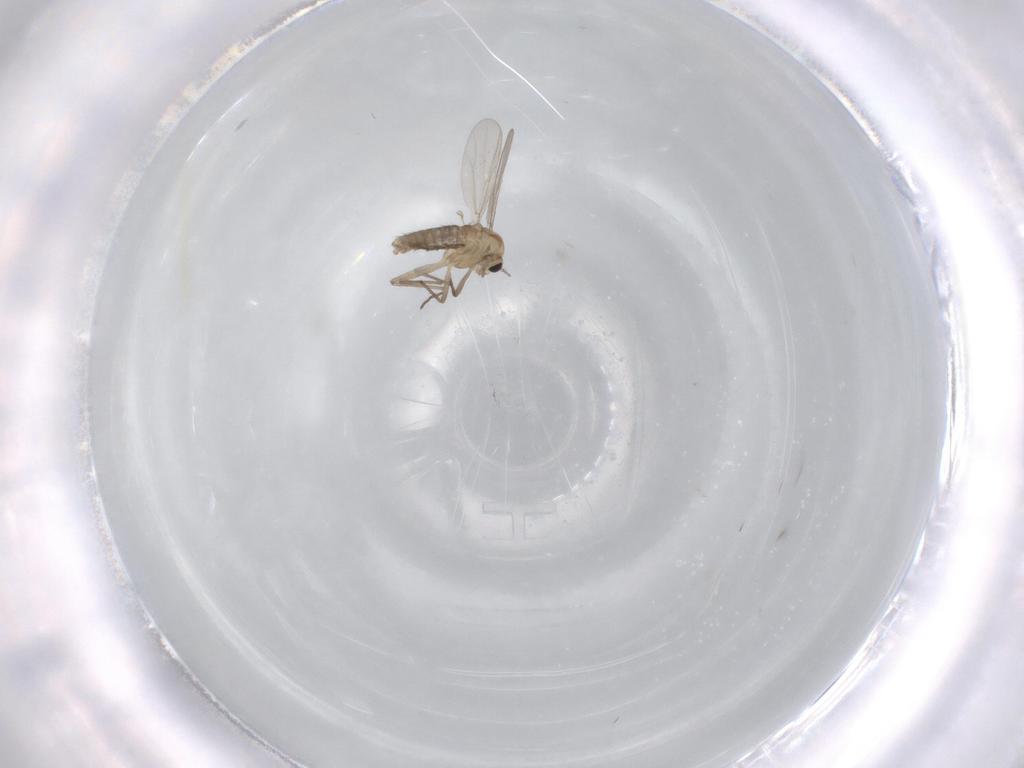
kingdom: Animalia
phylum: Arthropoda
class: Insecta
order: Diptera
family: Chironomidae
